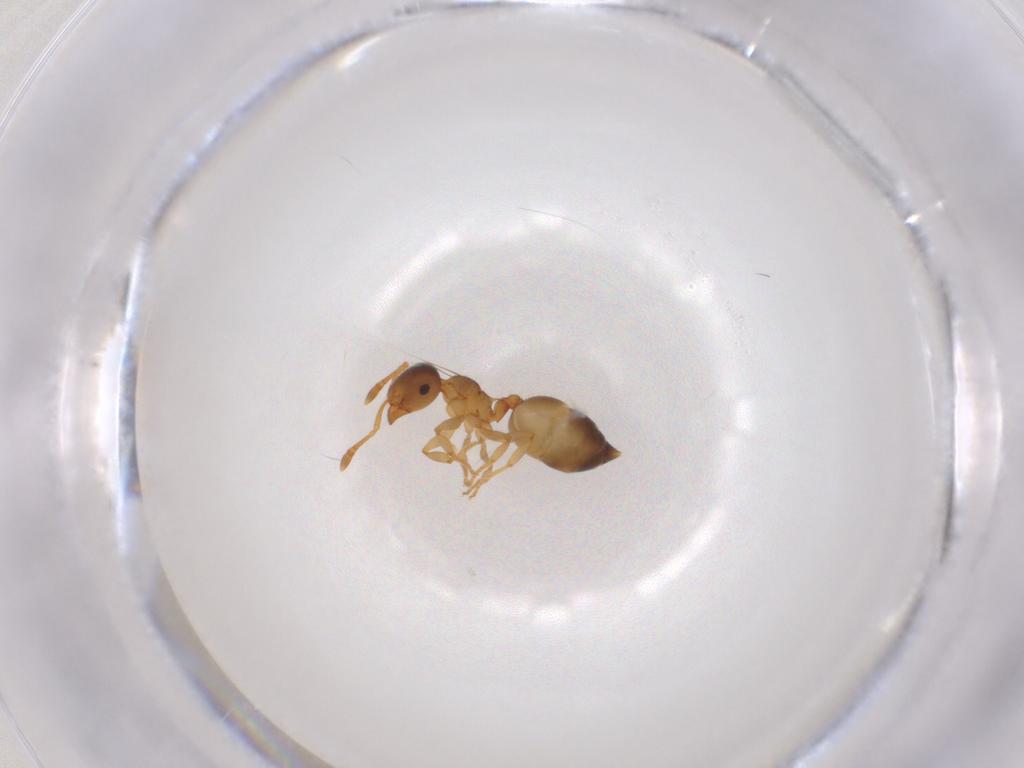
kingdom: Animalia
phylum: Arthropoda
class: Insecta
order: Hymenoptera
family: Formicidae
